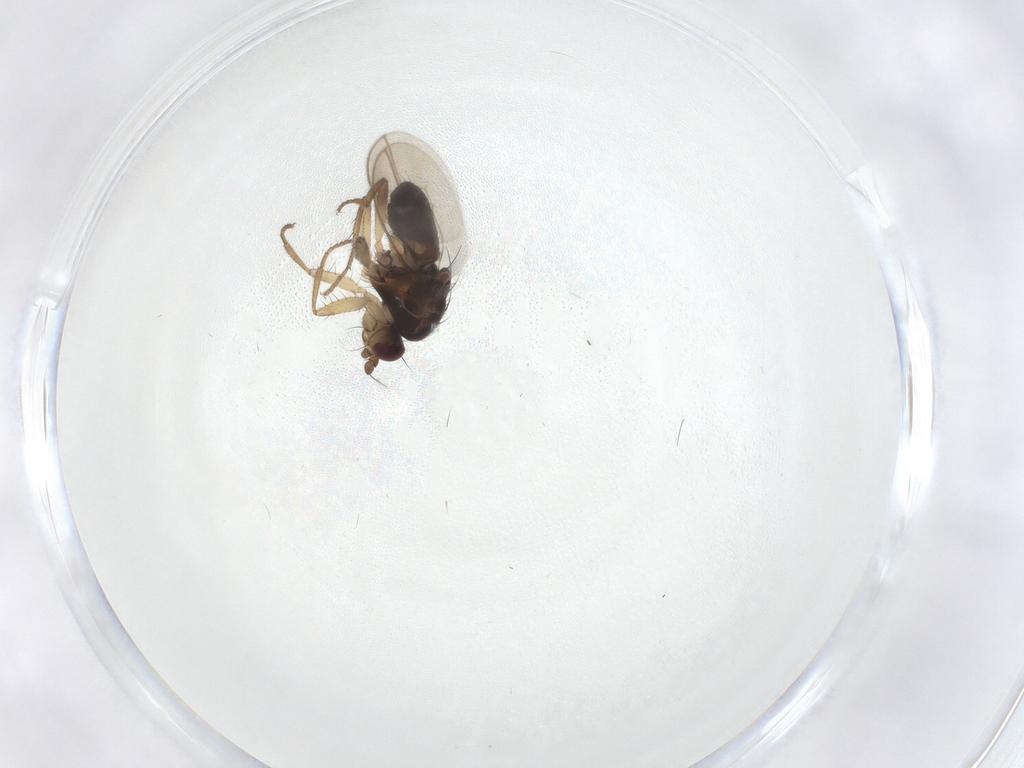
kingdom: Animalia
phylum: Arthropoda
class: Insecta
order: Diptera
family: Sphaeroceridae
